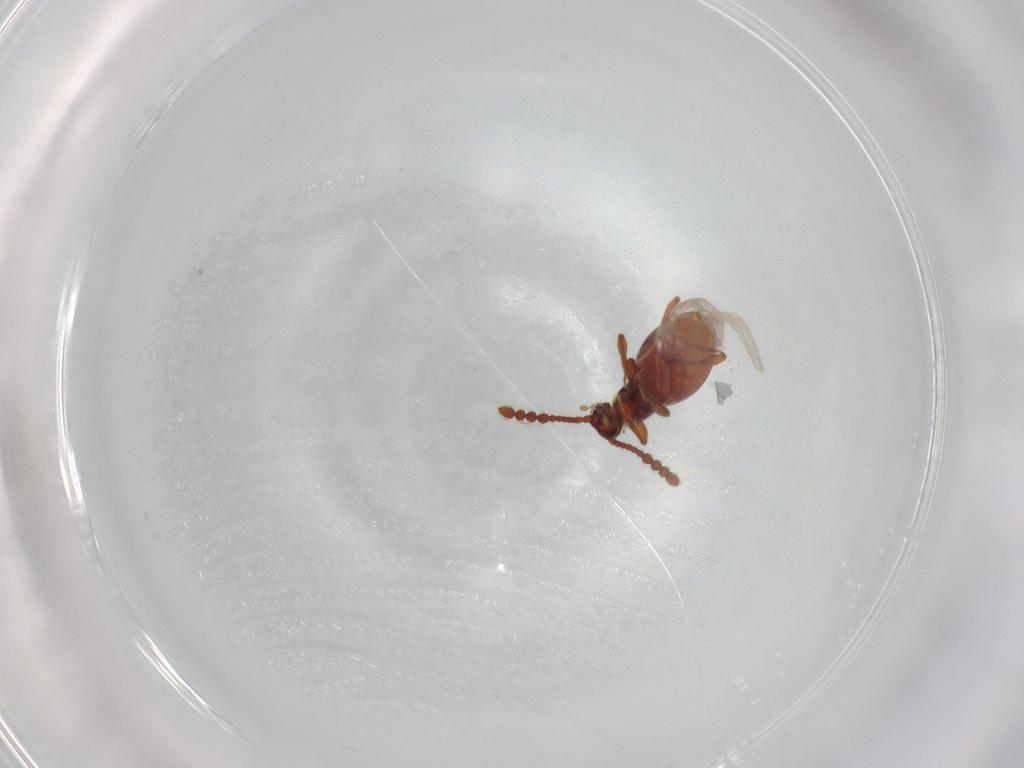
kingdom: Animalia
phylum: Arthropoda
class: Insecta
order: Coleoptera
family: Staphylinidae
